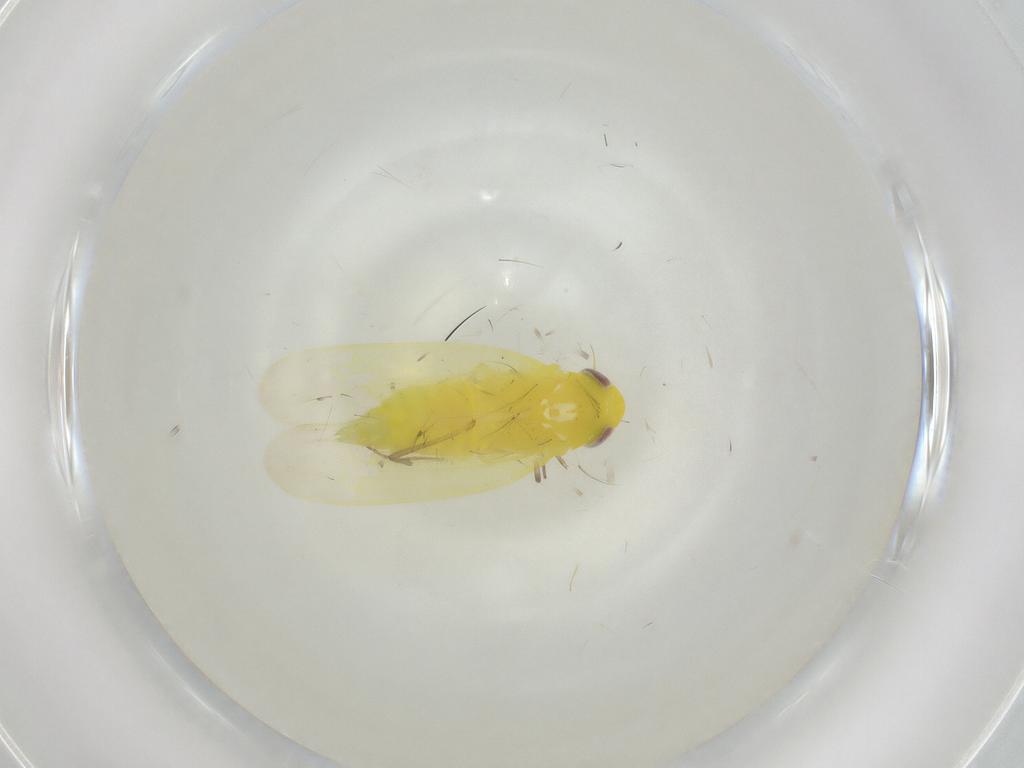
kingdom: Animalia
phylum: Arthropoda
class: Insecta
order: Hemiptera
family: Cicadellidae
